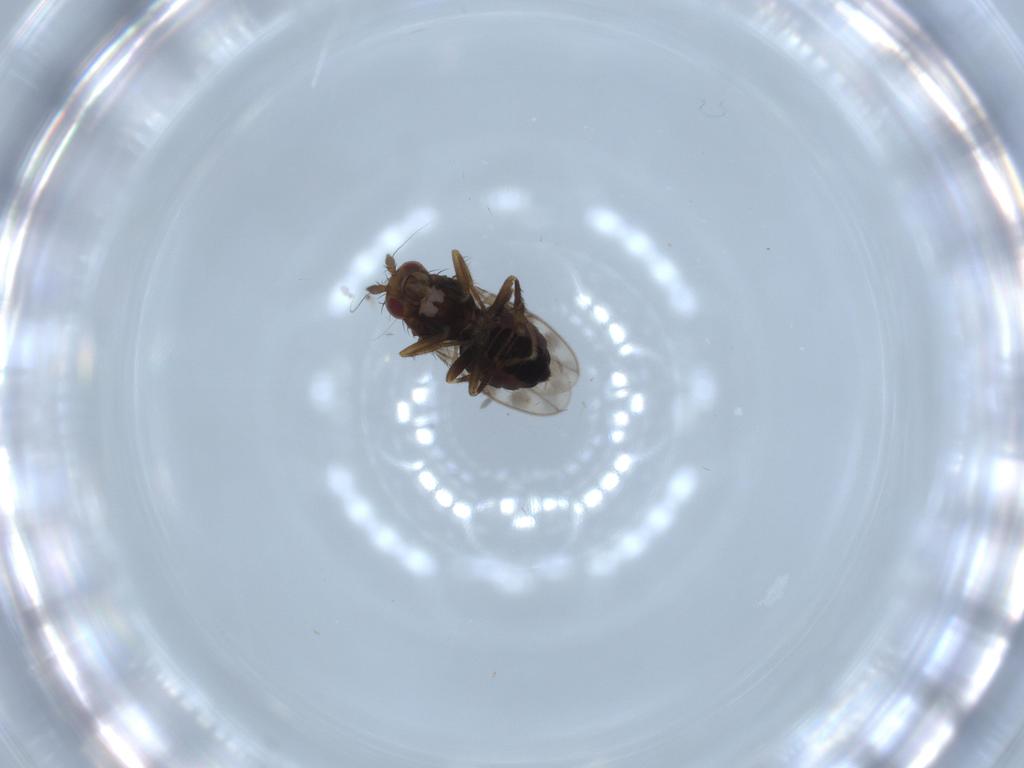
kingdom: Animalia
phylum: Arthropoda
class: Insecta
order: Diptera
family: Sphaeroceridae
